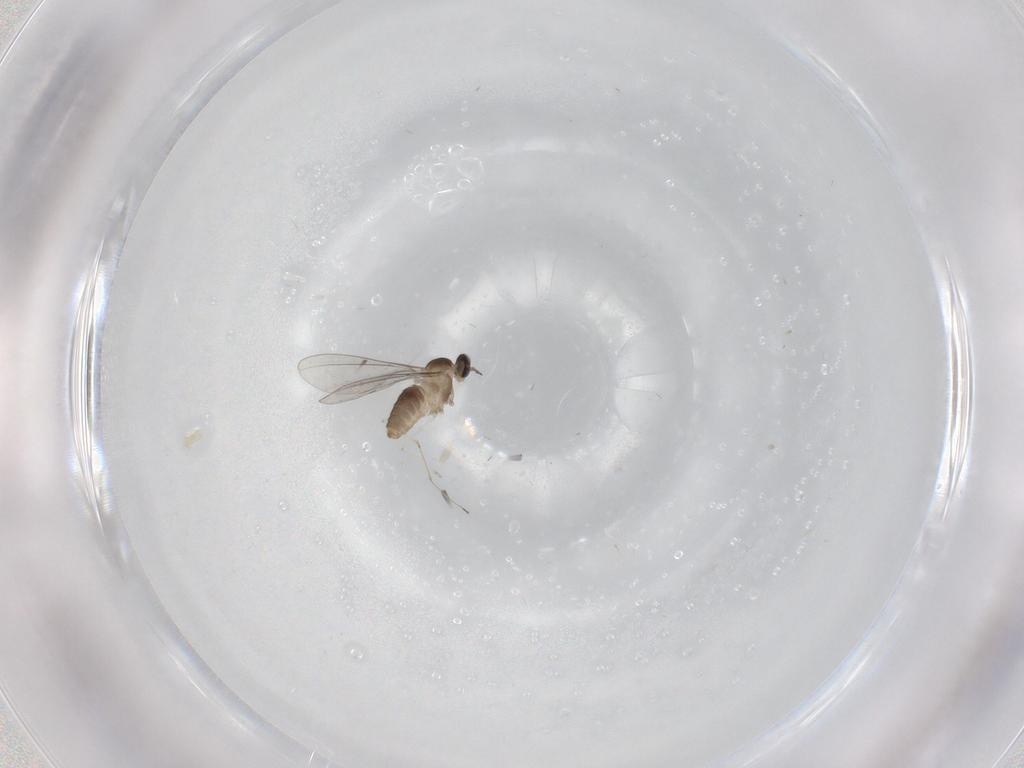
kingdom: Animalia
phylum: Arthropoda
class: Insecta
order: Diptera
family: Cecidomyiidae
